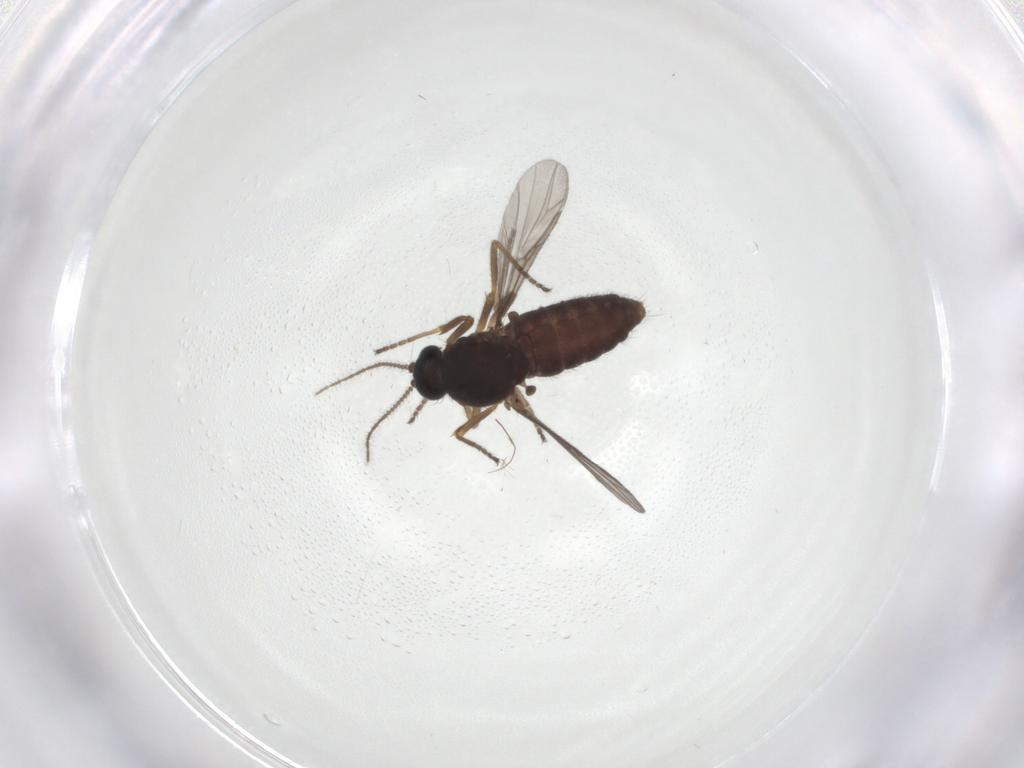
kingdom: Animalia
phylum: Arthropoda
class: Insecta
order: Diptera
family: Ceratopogonidae
